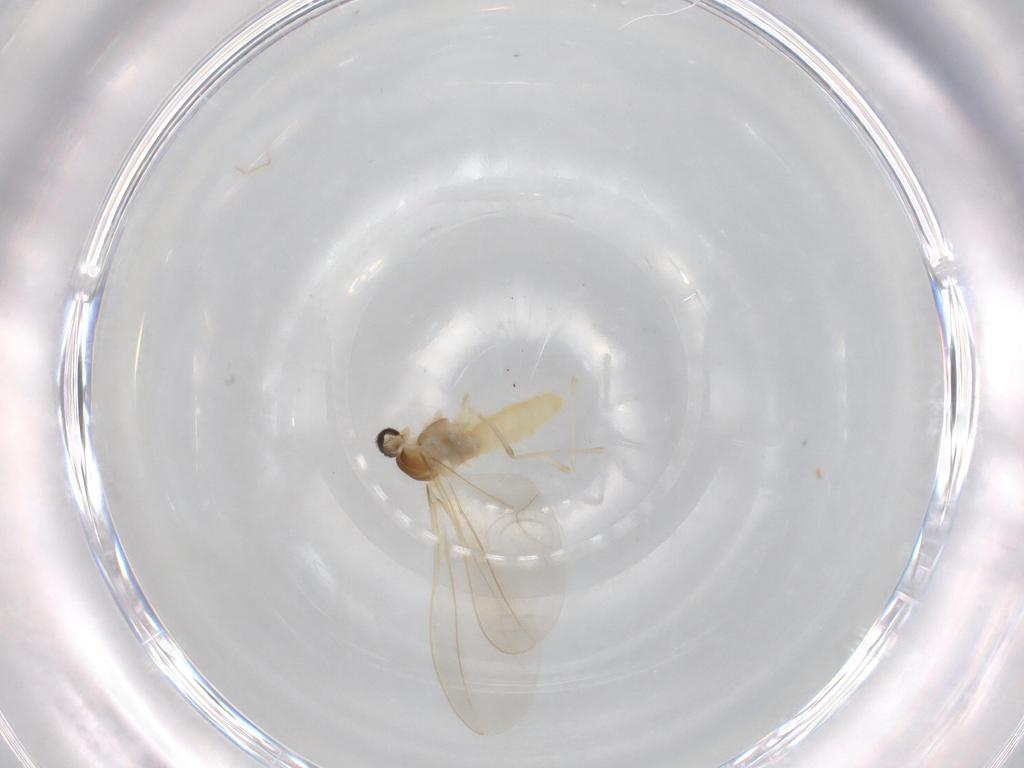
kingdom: Animalia
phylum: Arthropoda
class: Insecta
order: Diptera
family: Cecidomyiidae
